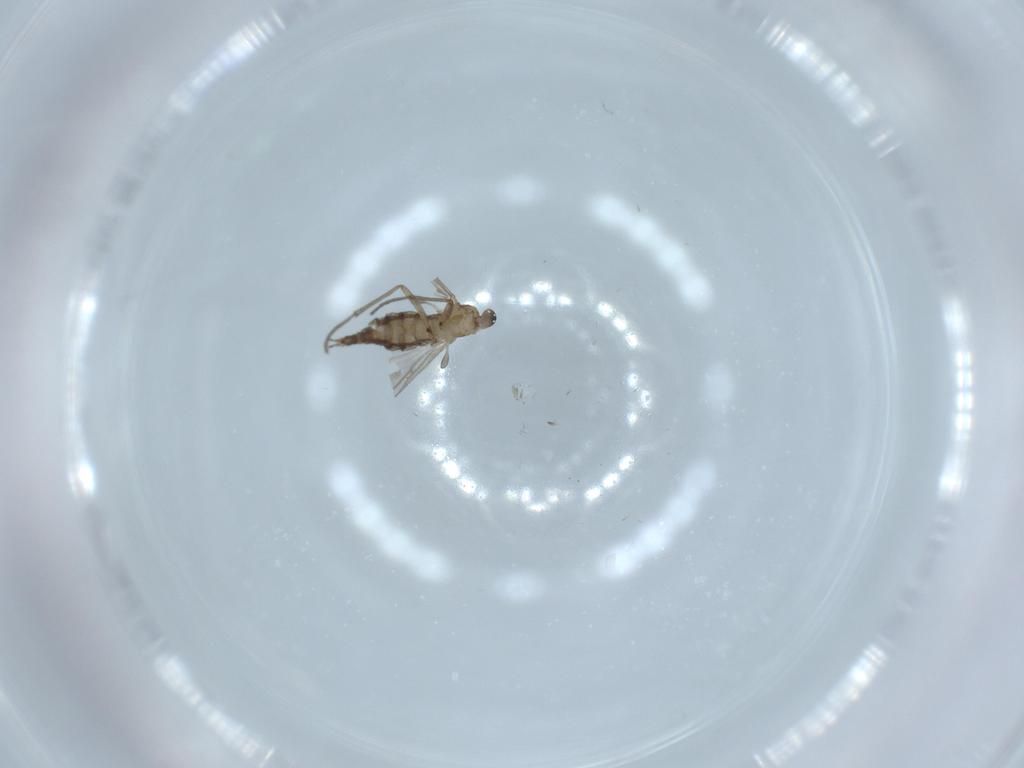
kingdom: Animalia
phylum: Arthropoda
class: Insecta
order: Diptera
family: Sciaridae
